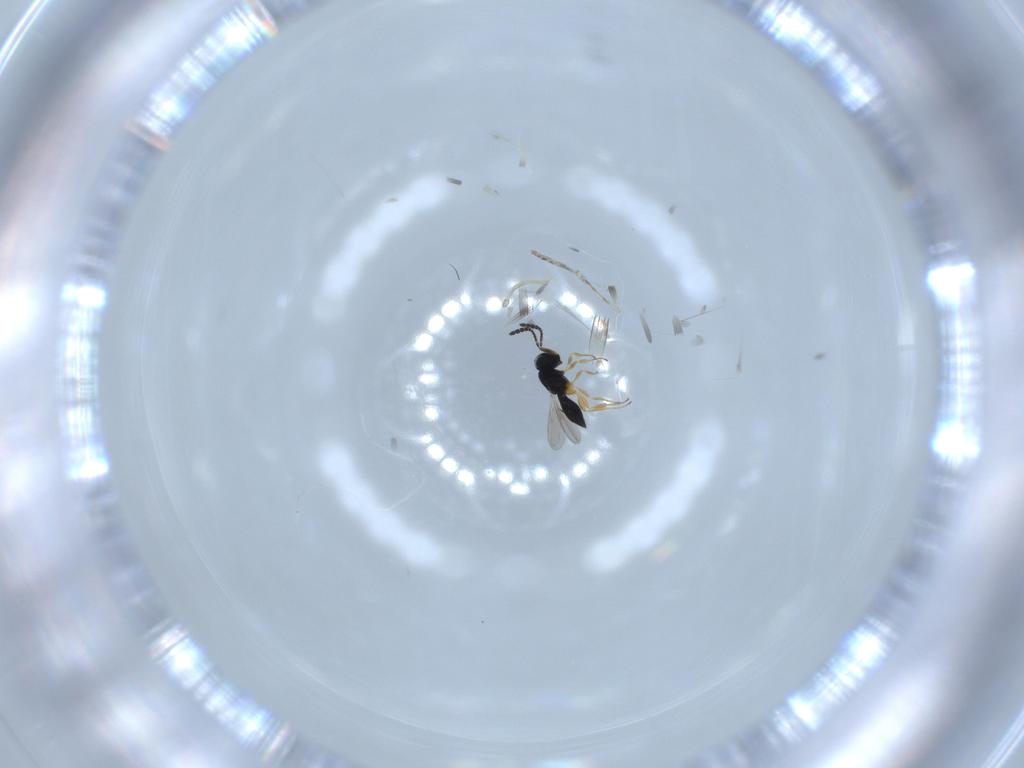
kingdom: Animalia
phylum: Arthropoda
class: Insecta
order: Hymenoptera
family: Scelionidae
